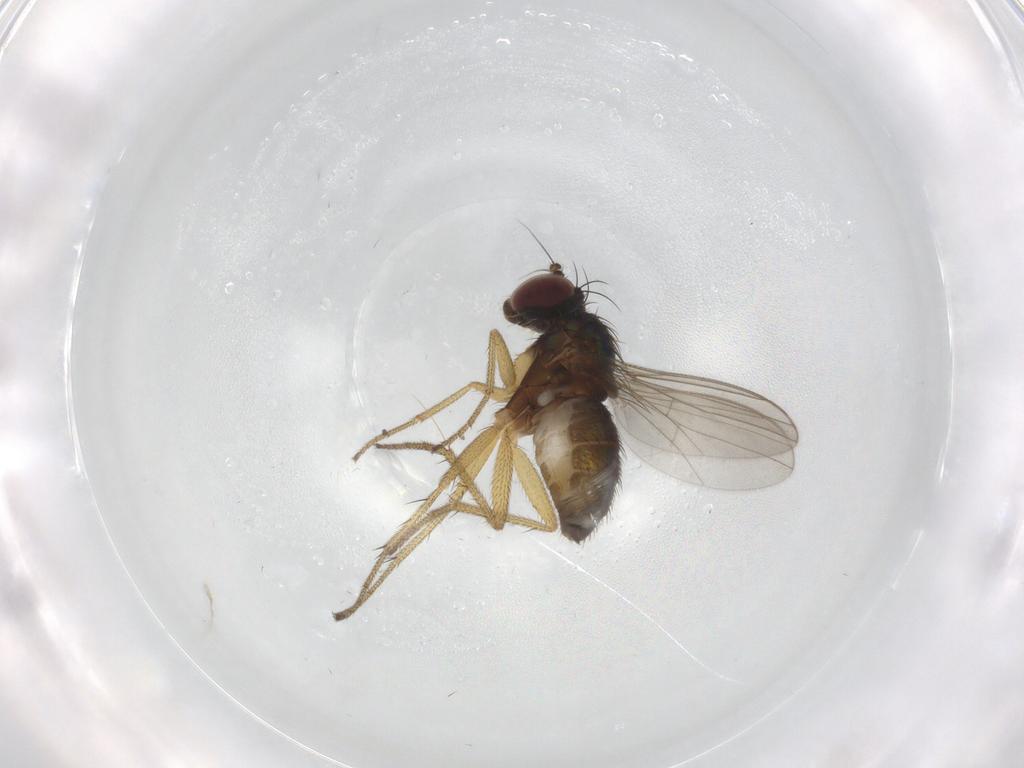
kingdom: Animalia
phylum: Arthropoda
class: Insecta
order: Diptera
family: Dolichopodidae
